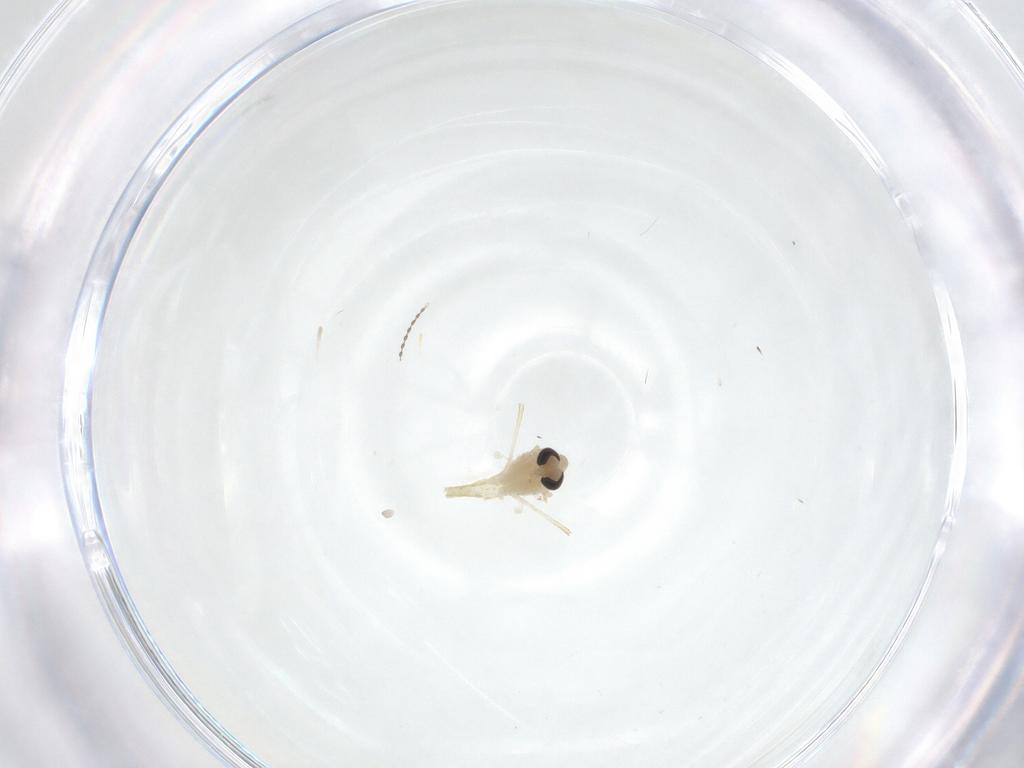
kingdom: Animalia
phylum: Arthropoda
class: Insecta
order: Diptera
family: Chironomidae
